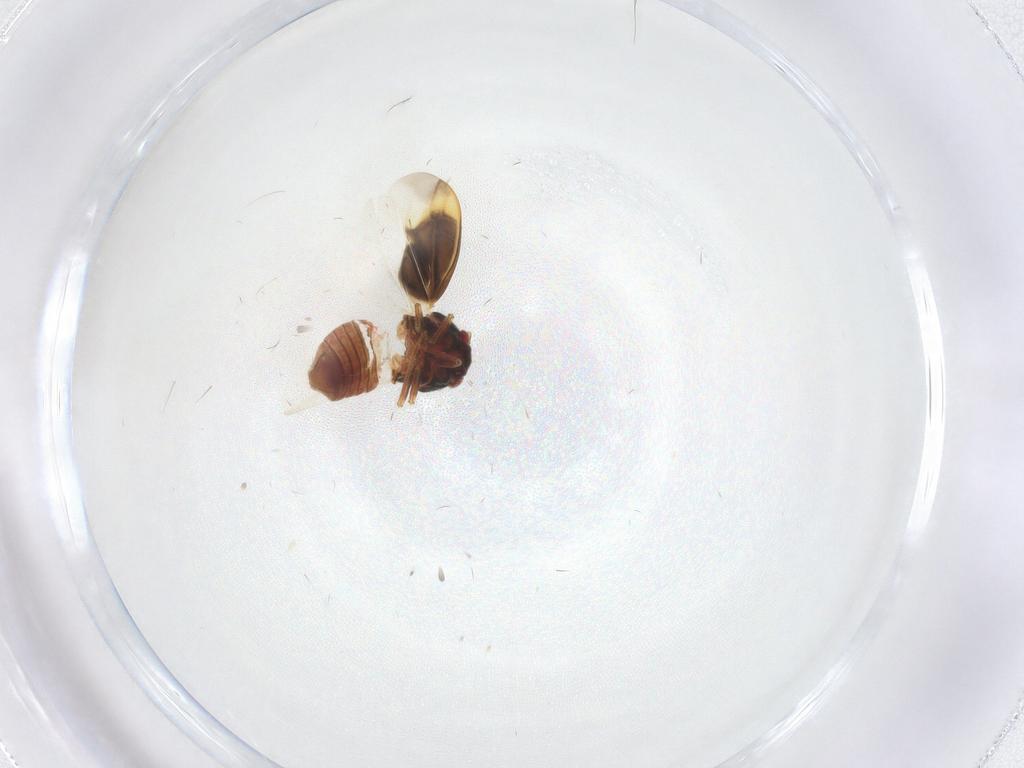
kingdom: Animalia
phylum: Arthropoda
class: Insecta
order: Hemiptera
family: Schizopteridae
